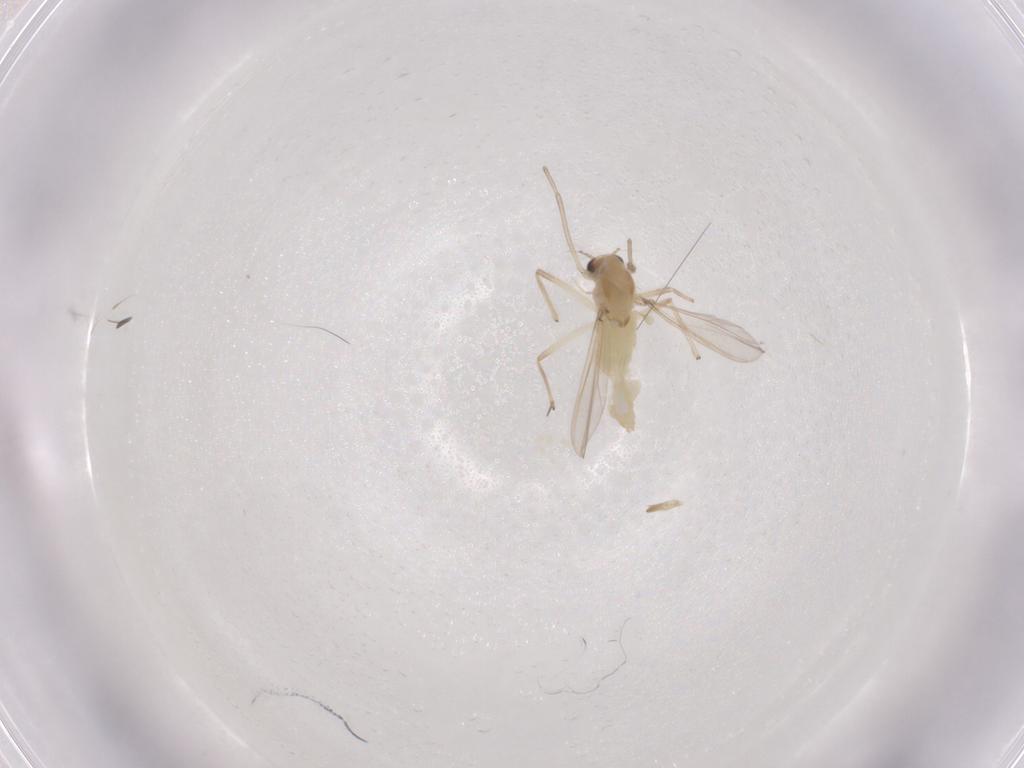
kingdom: Animalia
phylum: Arthropoda
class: Insecta
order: Diptera
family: Chironomidae
